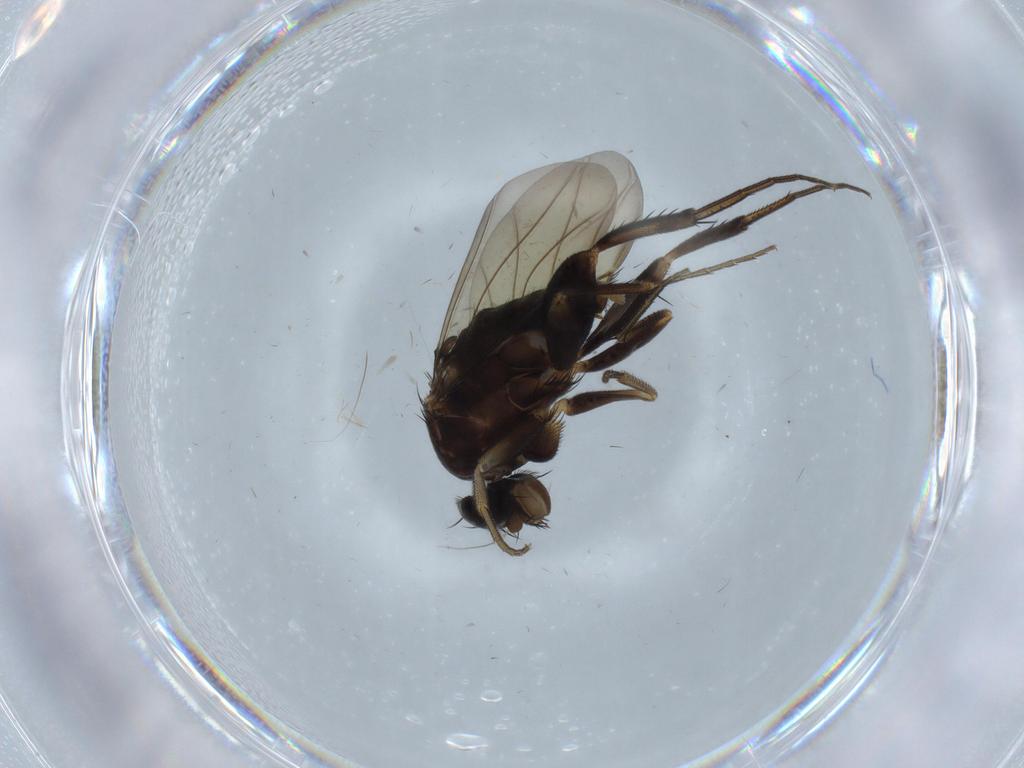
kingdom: Animalia
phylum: Arthropoda
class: Insecta
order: Diptera
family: Phoridae
